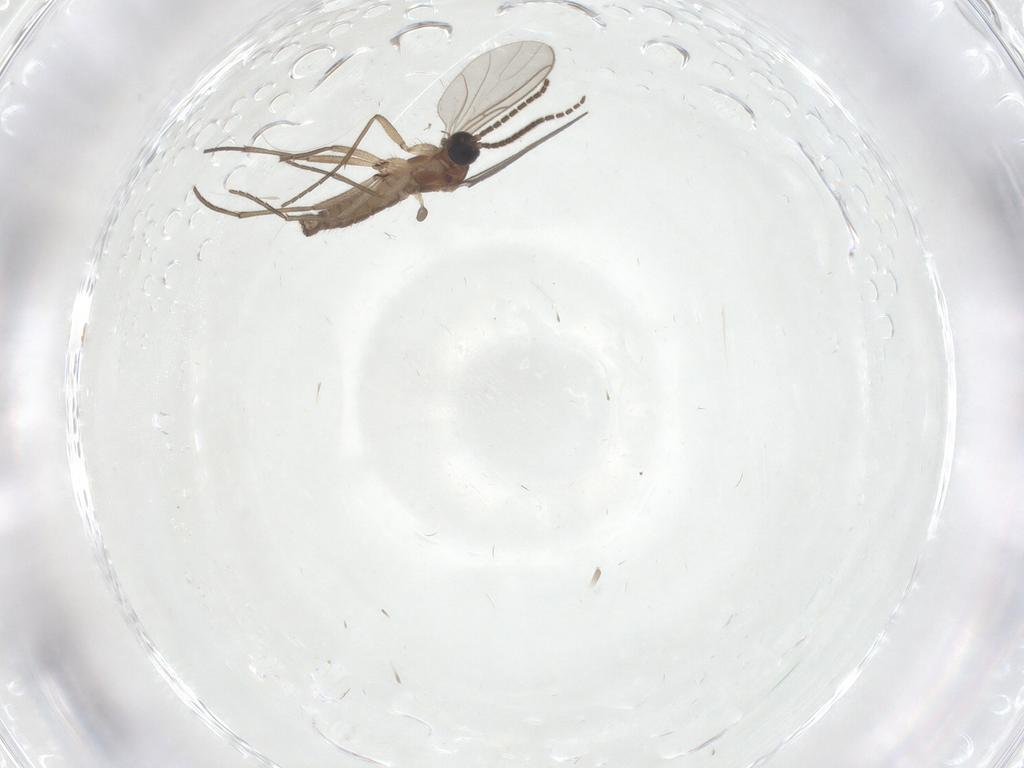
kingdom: Animalia
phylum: Arthropoda
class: Insecta
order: Diptera
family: Sciaridae
